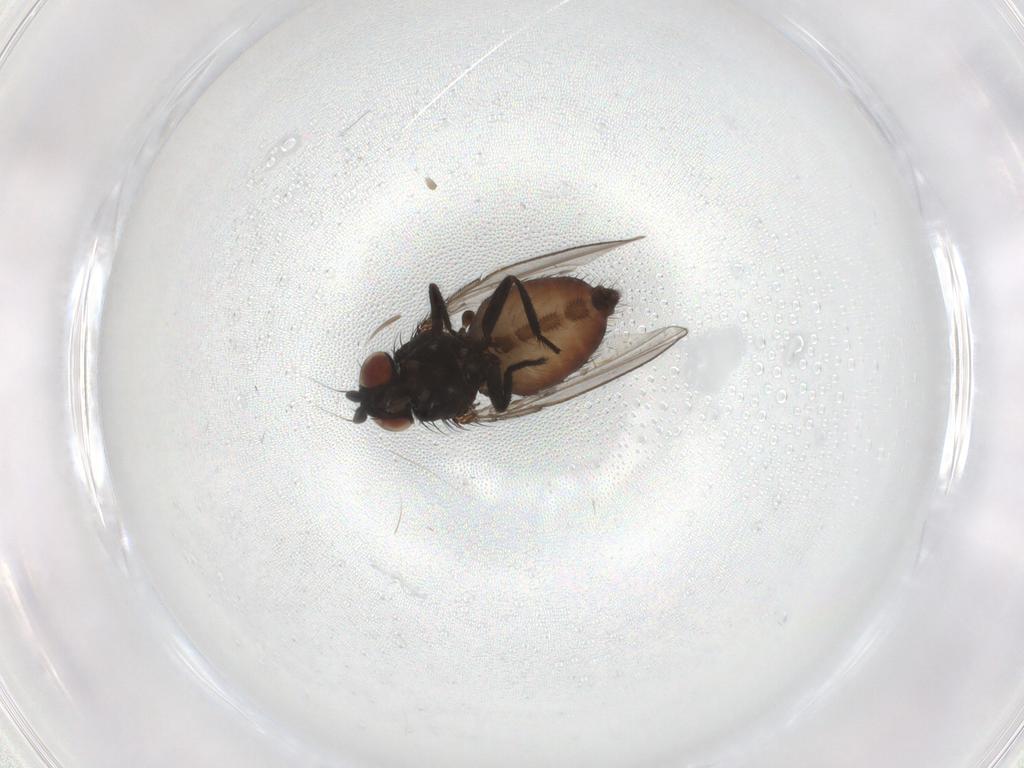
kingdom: Animalia
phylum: Arthropoda
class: Insecta
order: Diptera
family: Milichiidae
